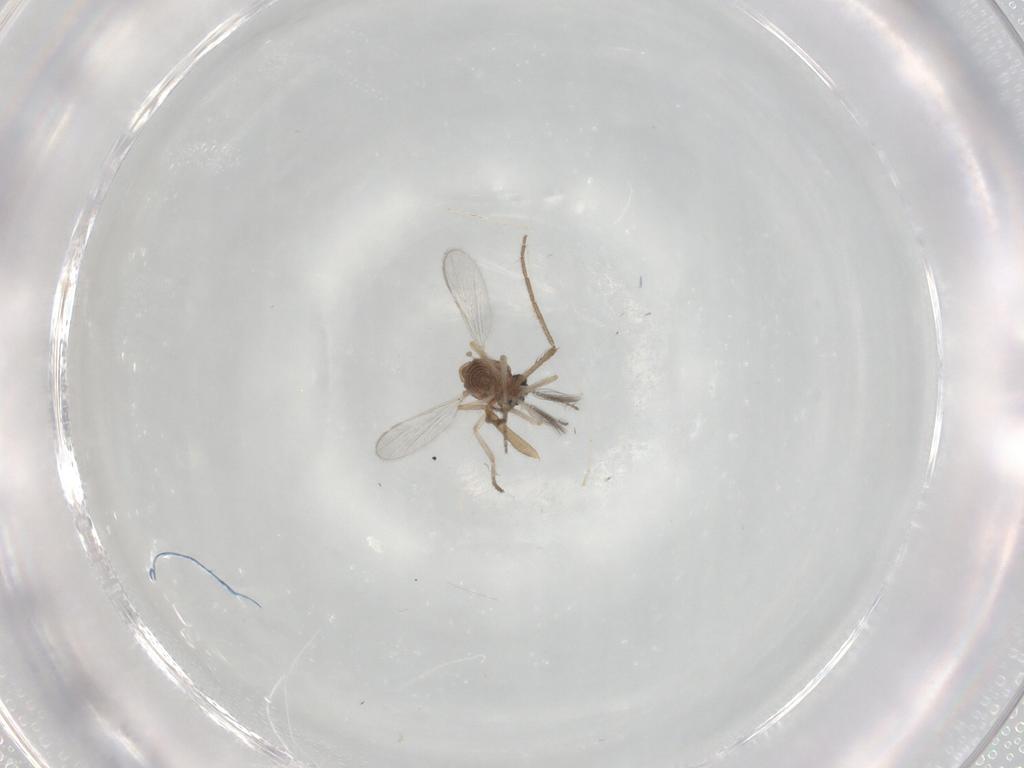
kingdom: Animalia
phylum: Arthropoda
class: Insecta
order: Diptera
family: Ceratopogonidae
